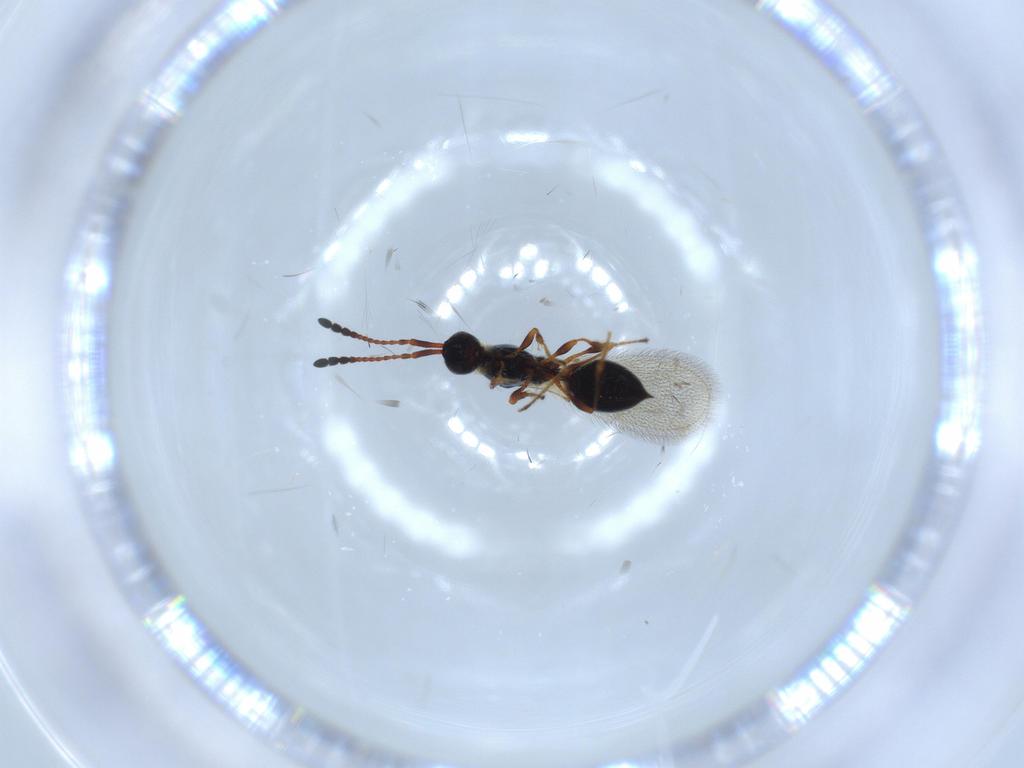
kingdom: Animalia
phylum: Arthropoda
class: Insecta
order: Hymenoptera
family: Diapriidae
